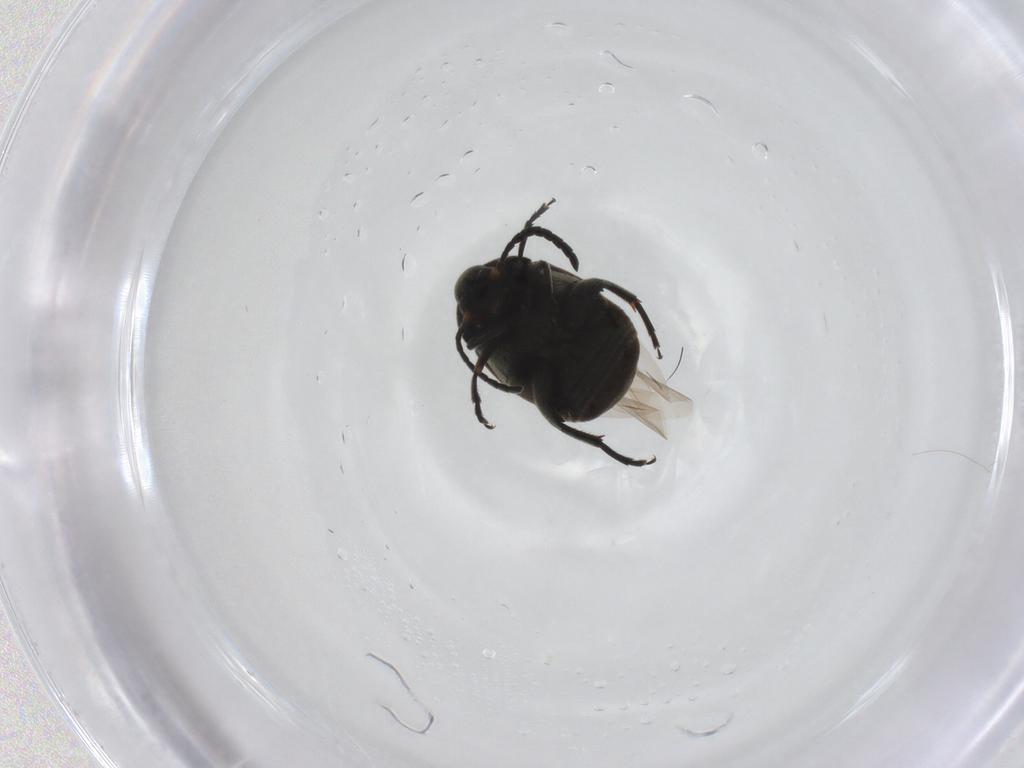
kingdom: Animalia
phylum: Arthropoda
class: Insecta
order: Coleoptera
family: Chrysomelidae
